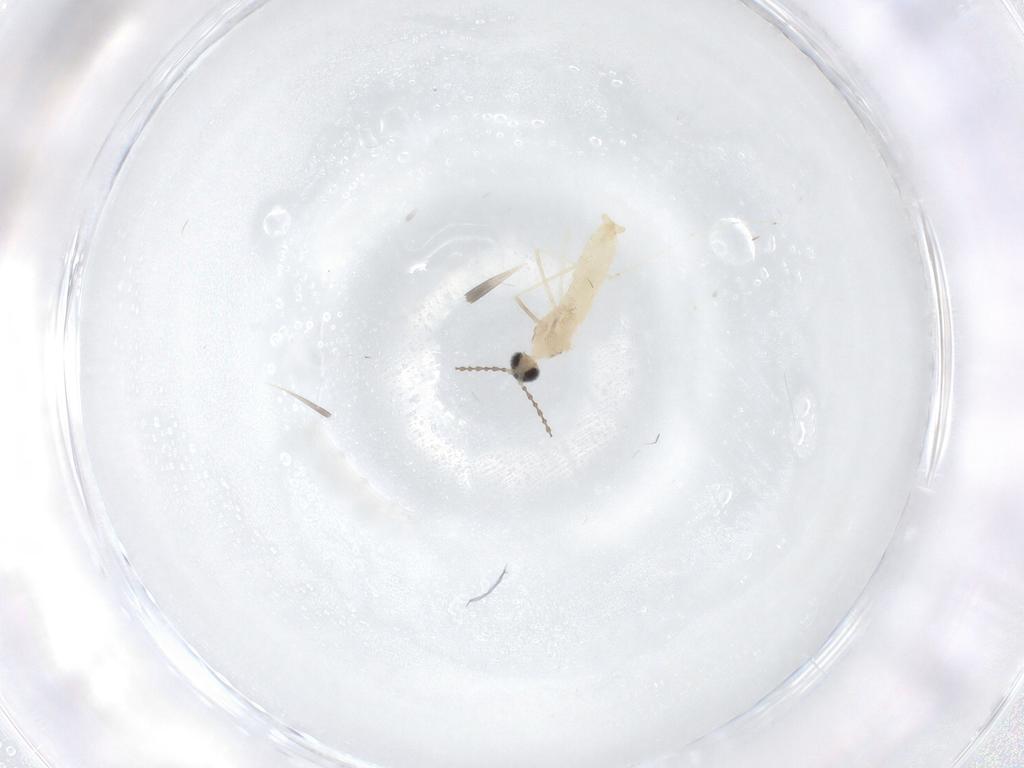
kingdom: Animalia
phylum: Arthropoda
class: Insecta
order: Diptera
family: Cecidomyiidae
